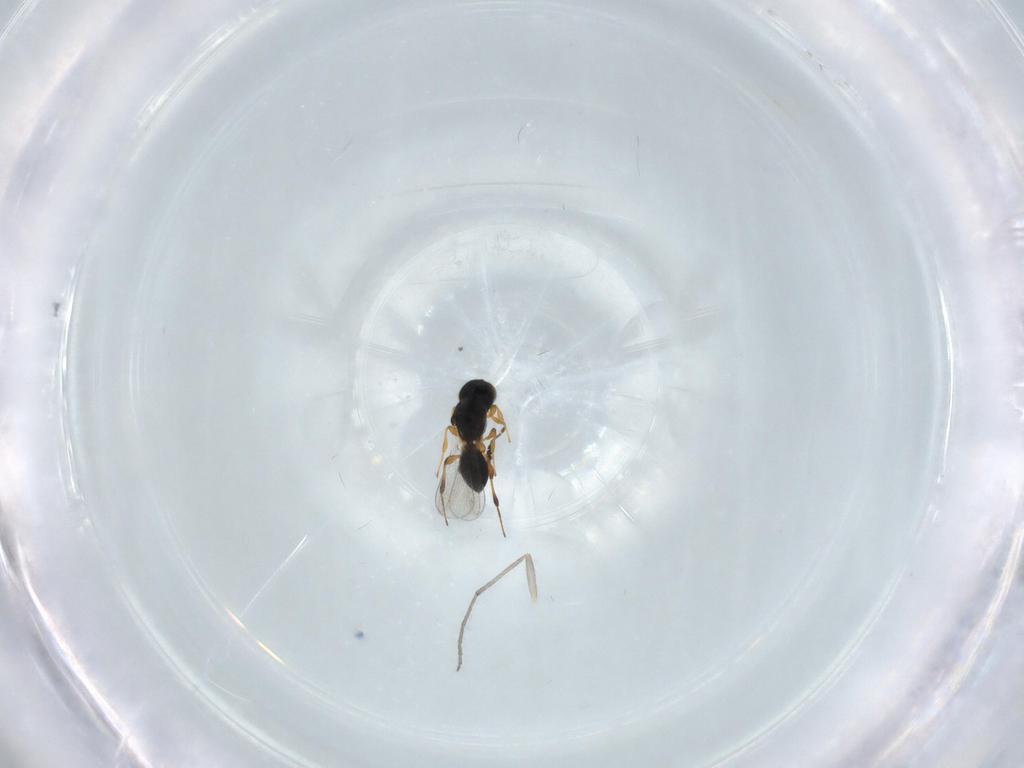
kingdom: Animalia
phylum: Arthropoda
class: Insecta
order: Hymenoptera
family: Platygastridae
